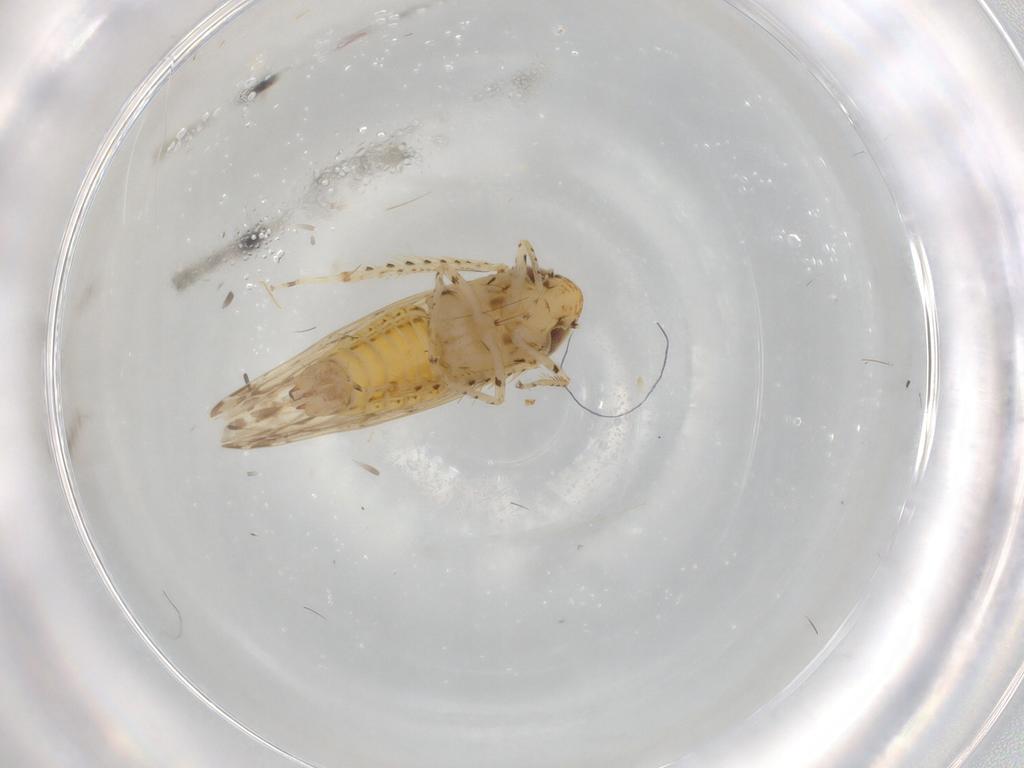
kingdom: Animalia
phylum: Arthropoda
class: Insecta
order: Hemiptera
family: Cicadellidae
